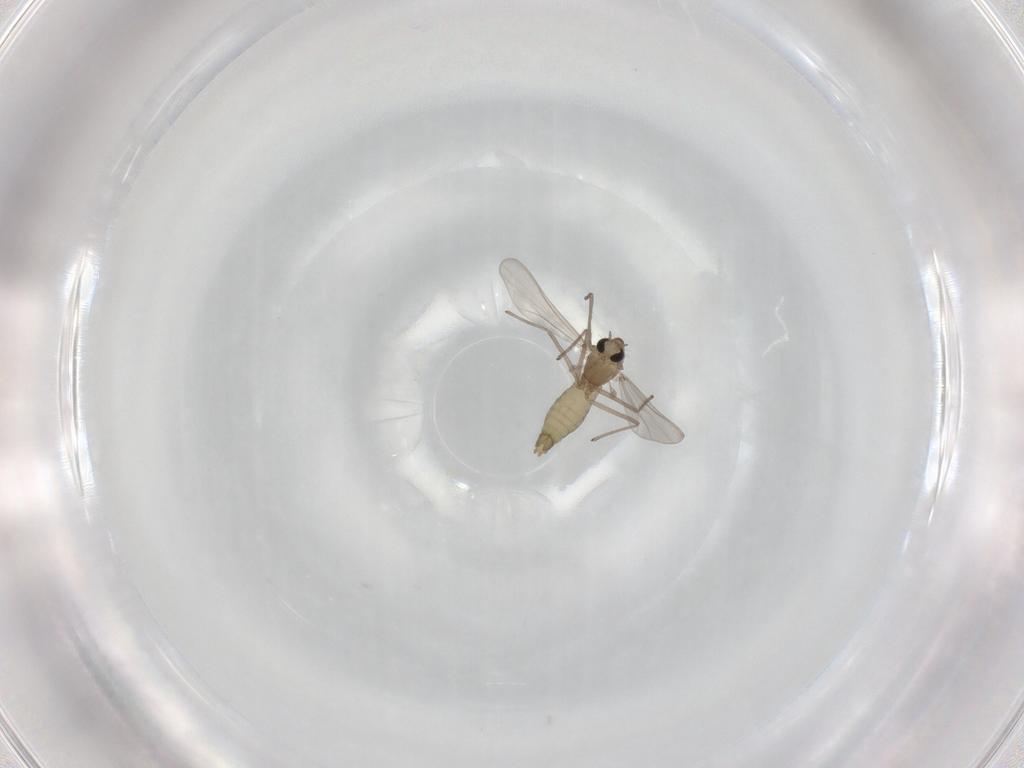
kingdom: Animalia
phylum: Arthropoda
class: Insecta
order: Diptera
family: Chironomidae
